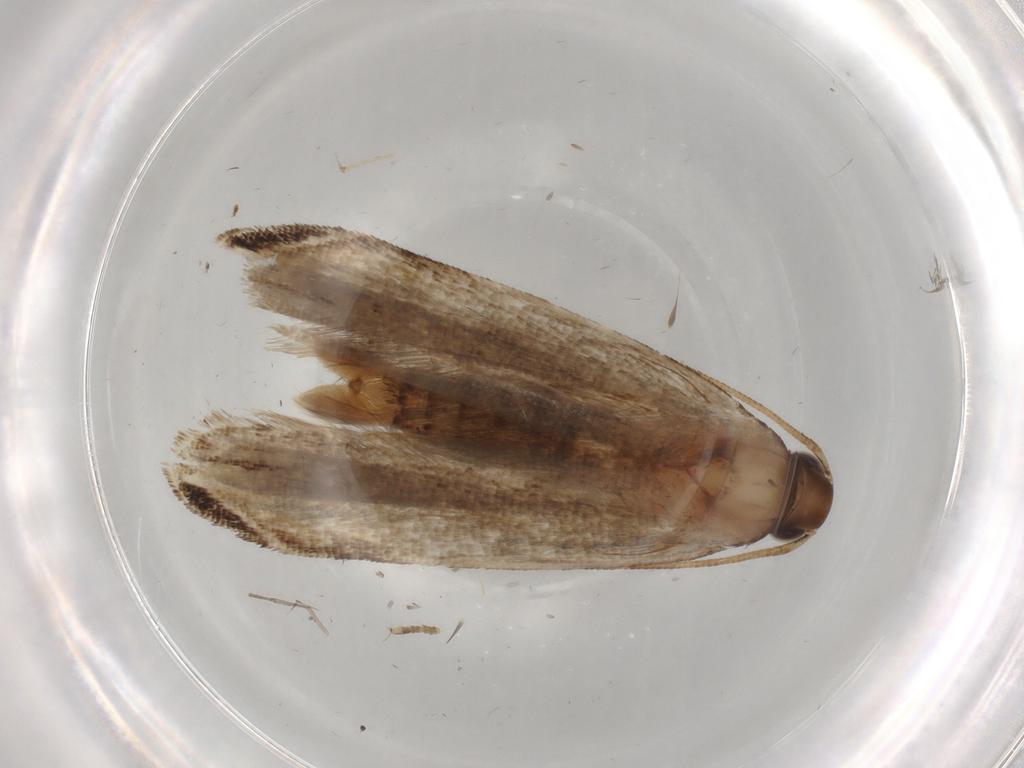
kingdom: Animalia
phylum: Arthropoda
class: Insecta
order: Lepidoptera
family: Gelechiidae
